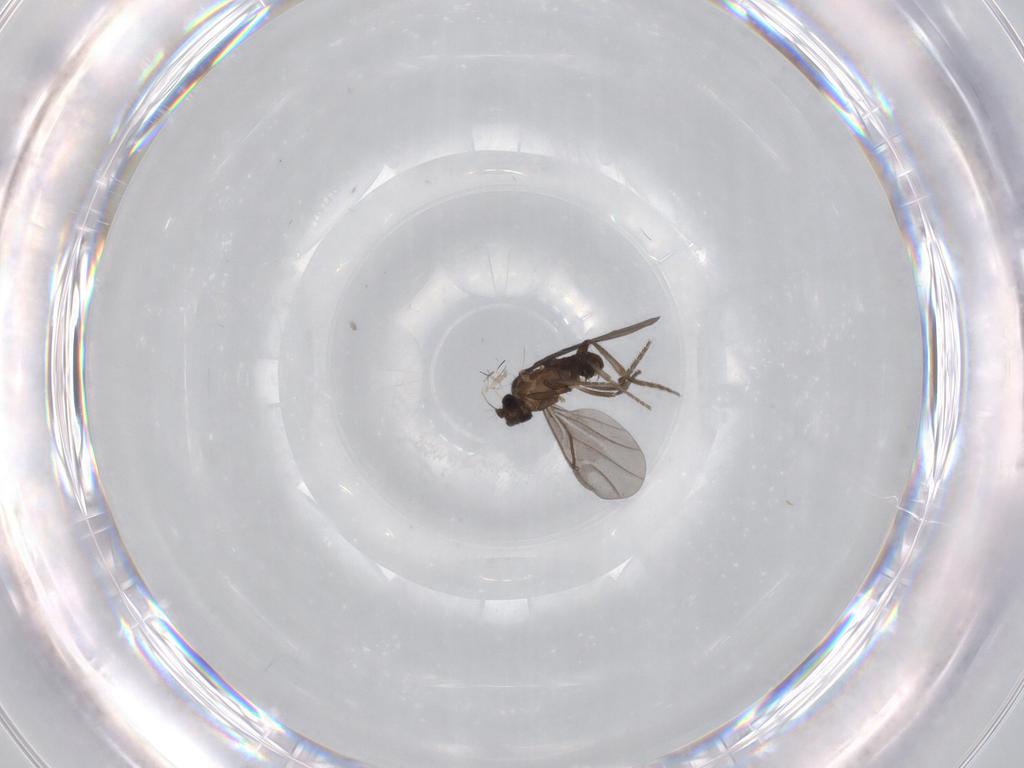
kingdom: Animalia
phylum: Arthropoda
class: Insecta
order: Diptera
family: Phoridae
